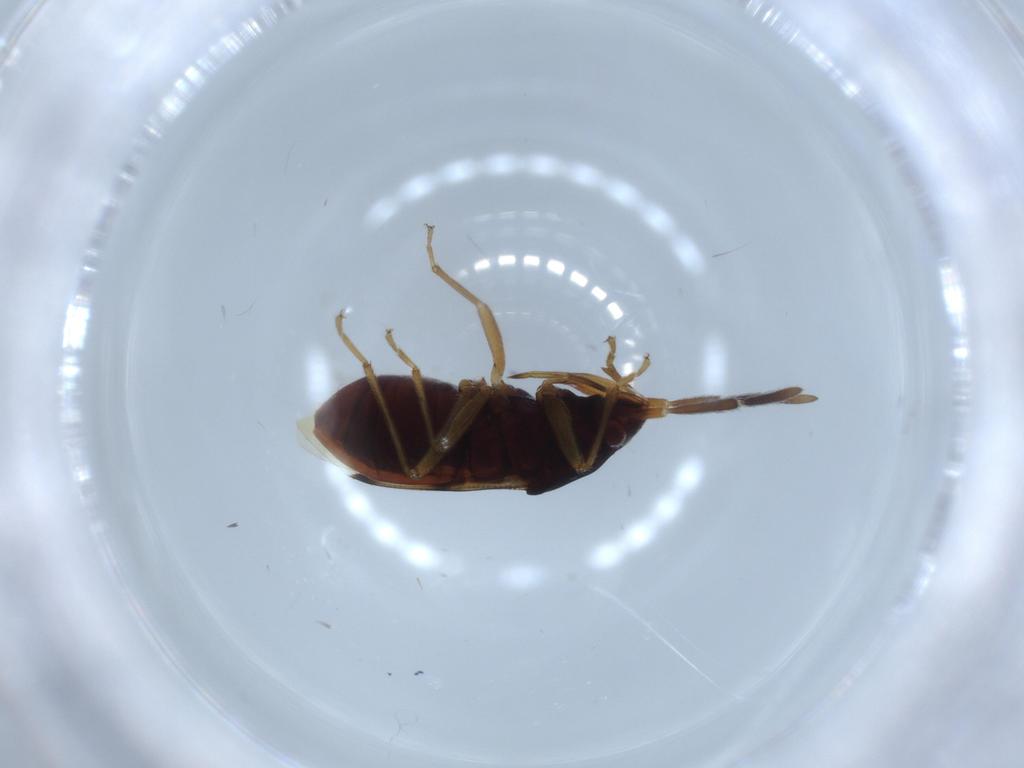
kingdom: Animalia
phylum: Arthropoda
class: Insecta
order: Hemiptera
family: Rhyparochromidae
